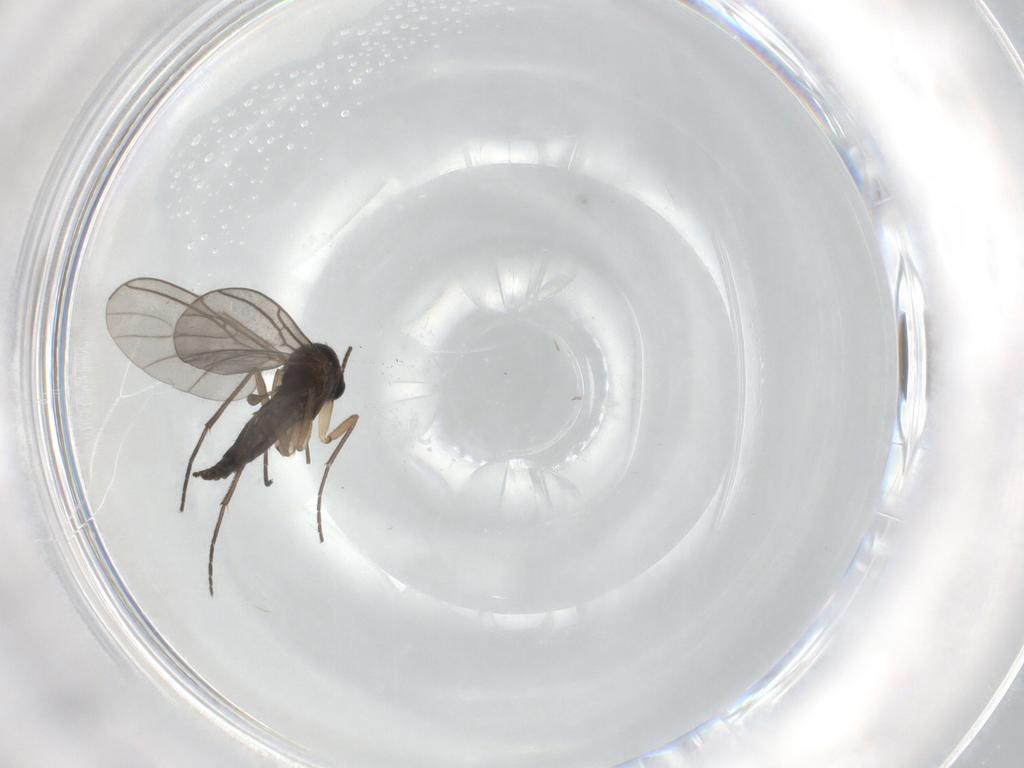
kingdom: Animalia
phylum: Arthropoda
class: Insecta
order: Diptera
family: Sciaridae
